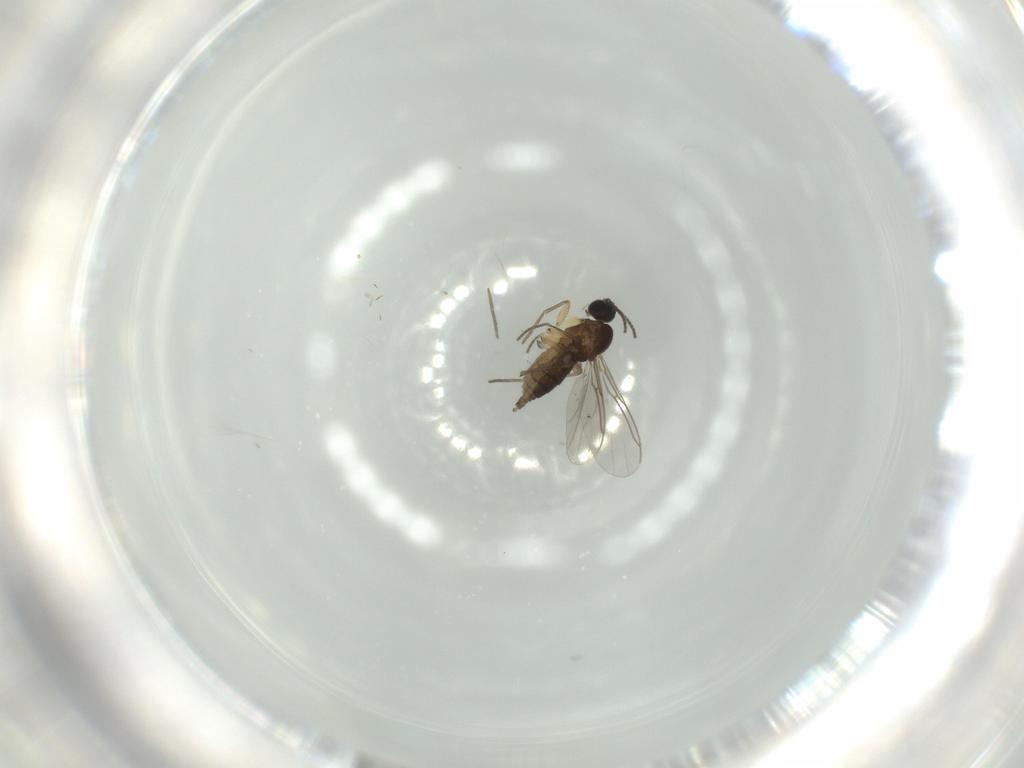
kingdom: Animalia
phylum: Arthropoda
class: Insecta
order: Diptera
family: Sciaridae
